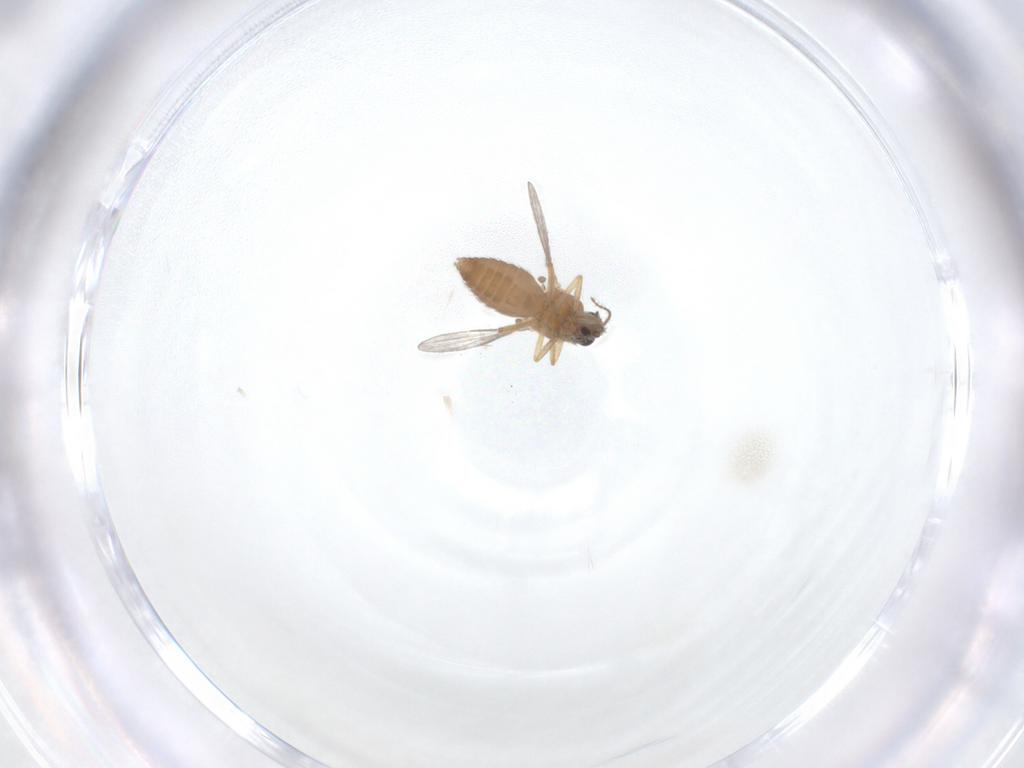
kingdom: Animalia
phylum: Arthropoda
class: Insecta
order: Diptera
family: Ceratopogonidae
